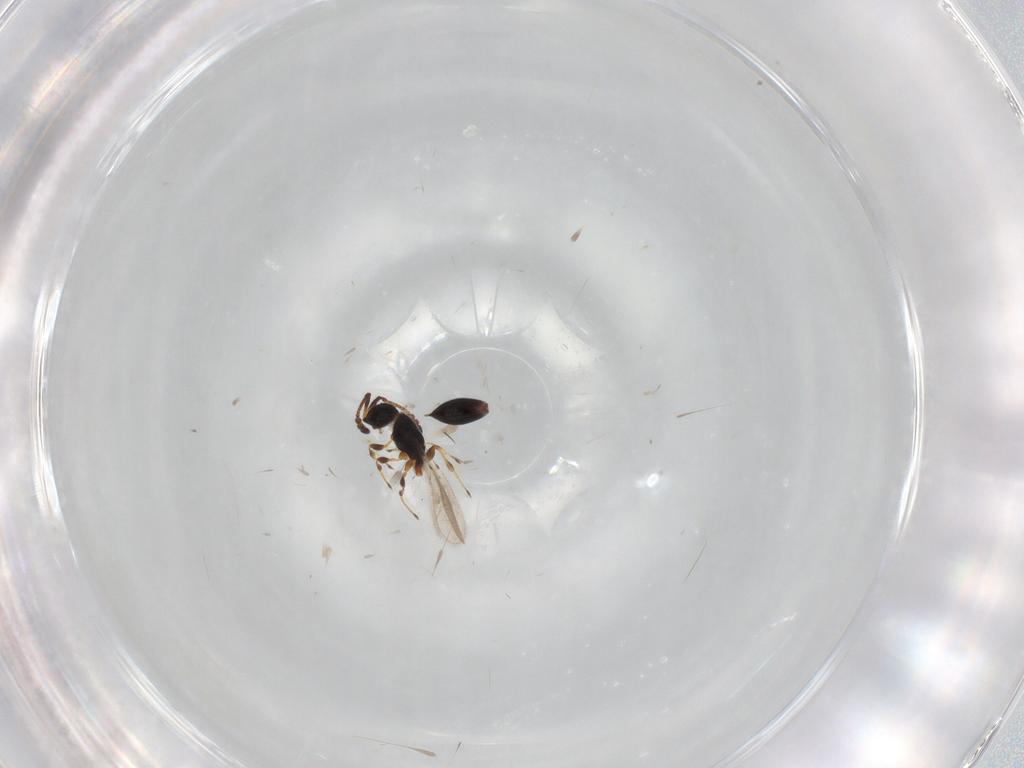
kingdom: Animalia
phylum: Arthropoda
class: Insecta
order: Hymenoptera
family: Diapriidae
